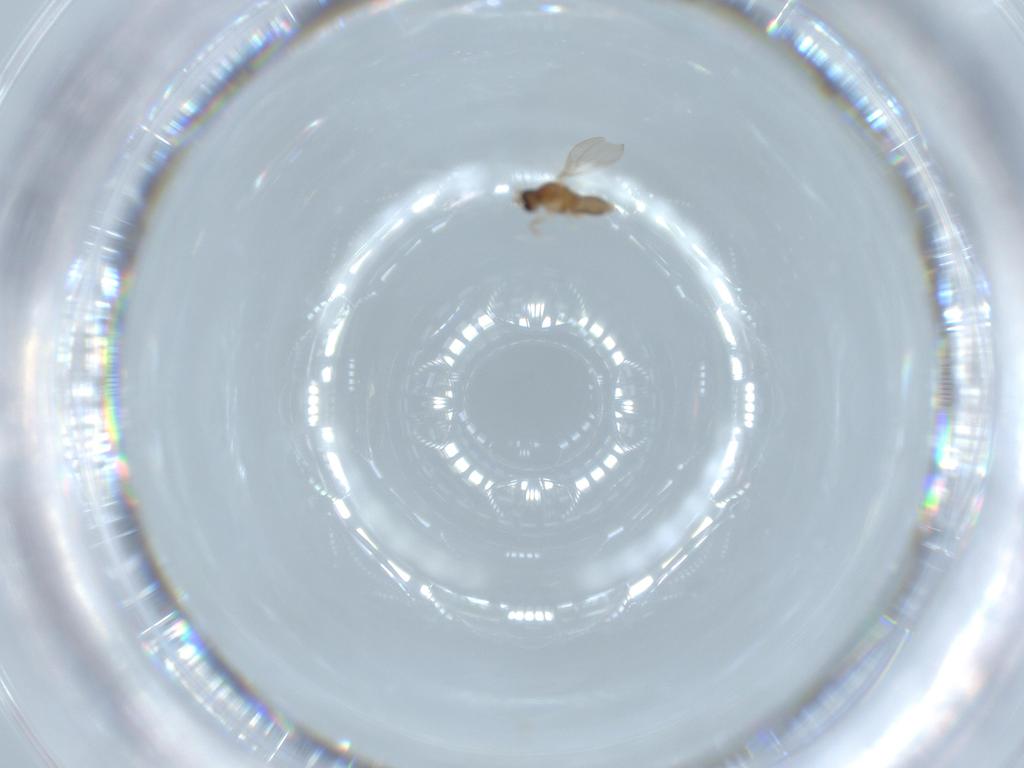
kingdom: Animalia
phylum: Arthropoda
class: Insecta
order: Diptera
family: Cecidomyiidae
